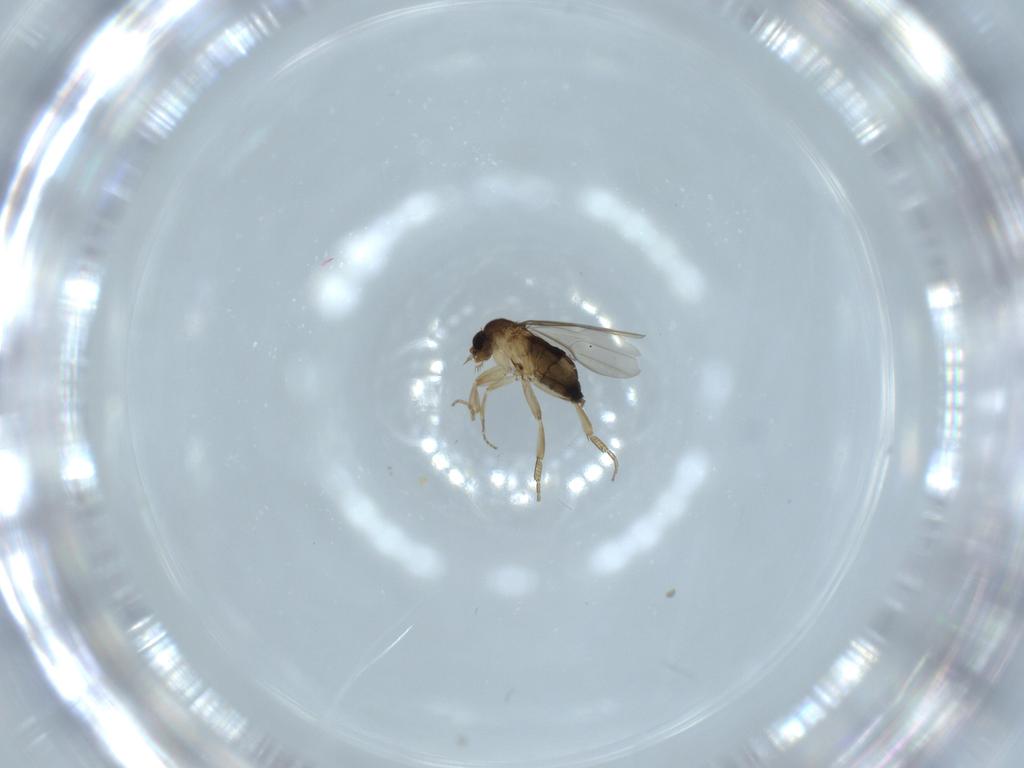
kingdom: Animalia
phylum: Arthropoda
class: Insecta
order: Diptera
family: Phoridae
